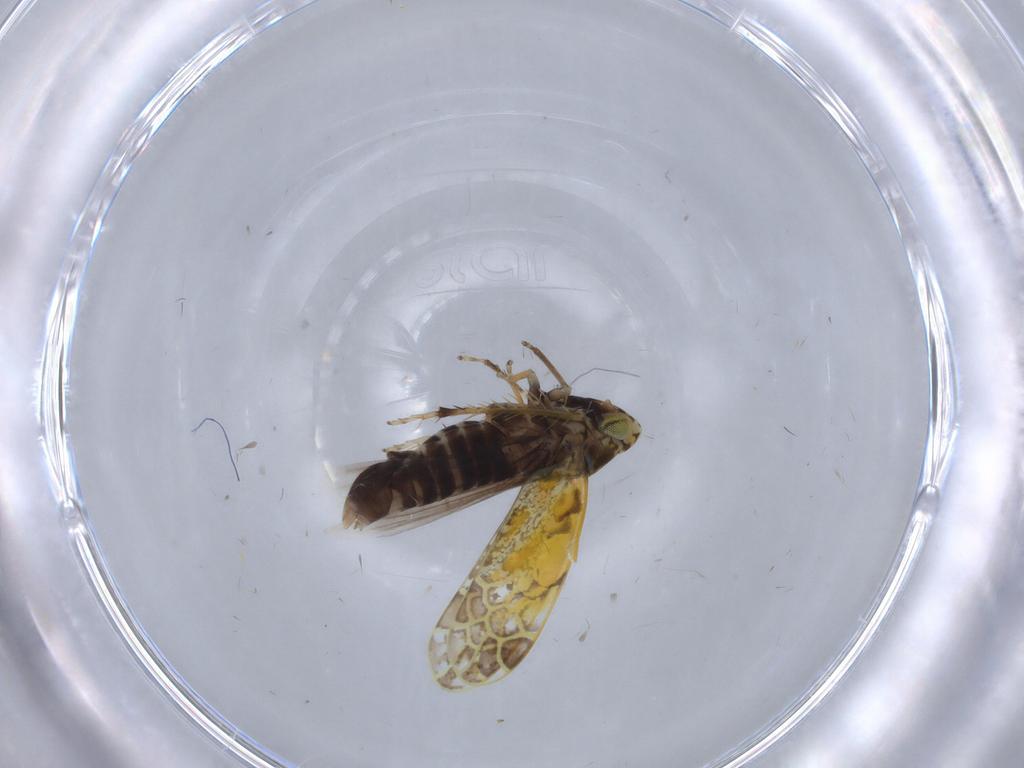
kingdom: Animalia
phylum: Arthropoda
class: Insecta
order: Hemiptera
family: Cicadellidae
